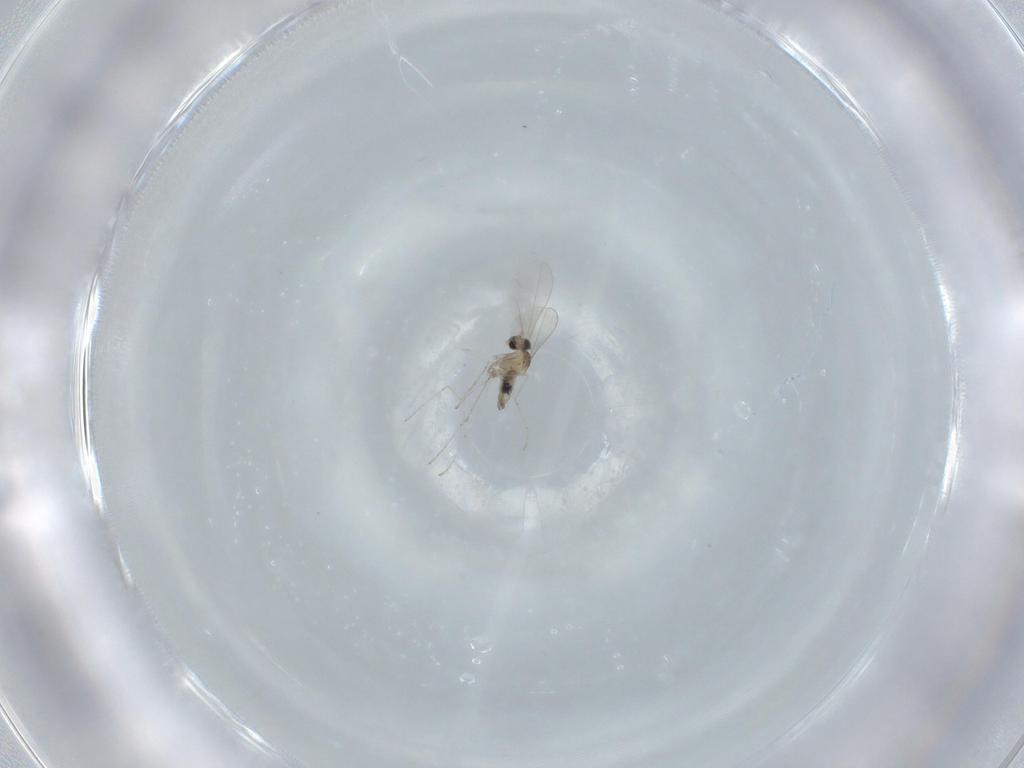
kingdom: Animalia
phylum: Arthropoda
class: Insecta
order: Diptera
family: Cecidomyiidae
